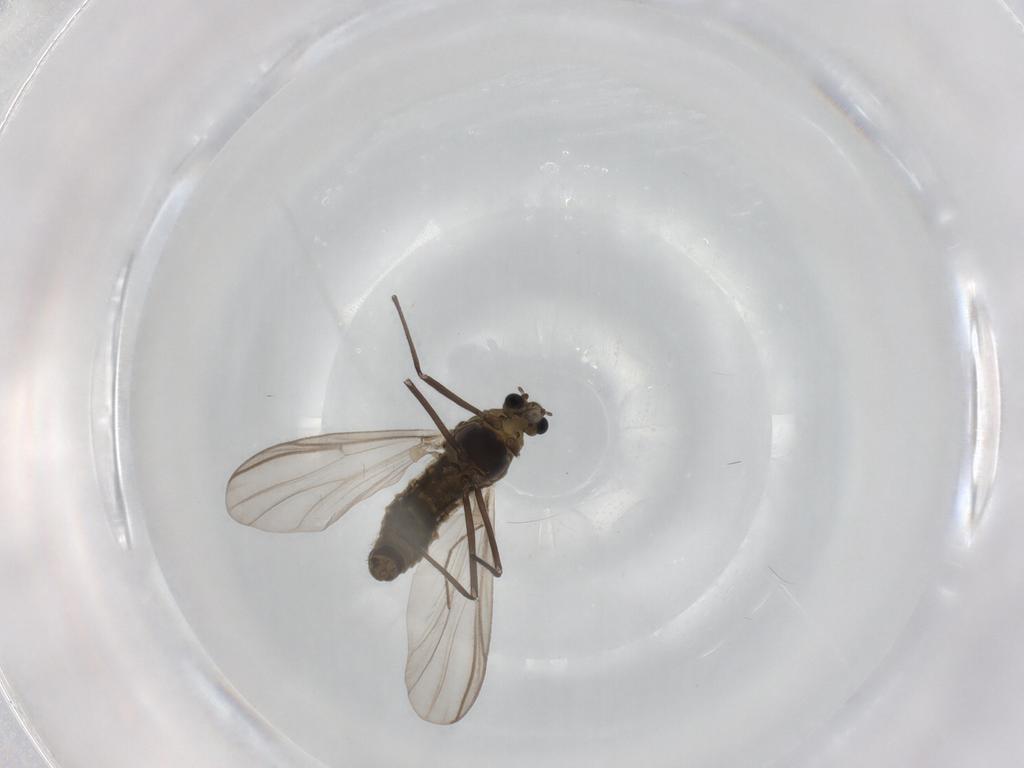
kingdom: Animalia
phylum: Arthropoda
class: Insecta
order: Diptera
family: Chironomidae
